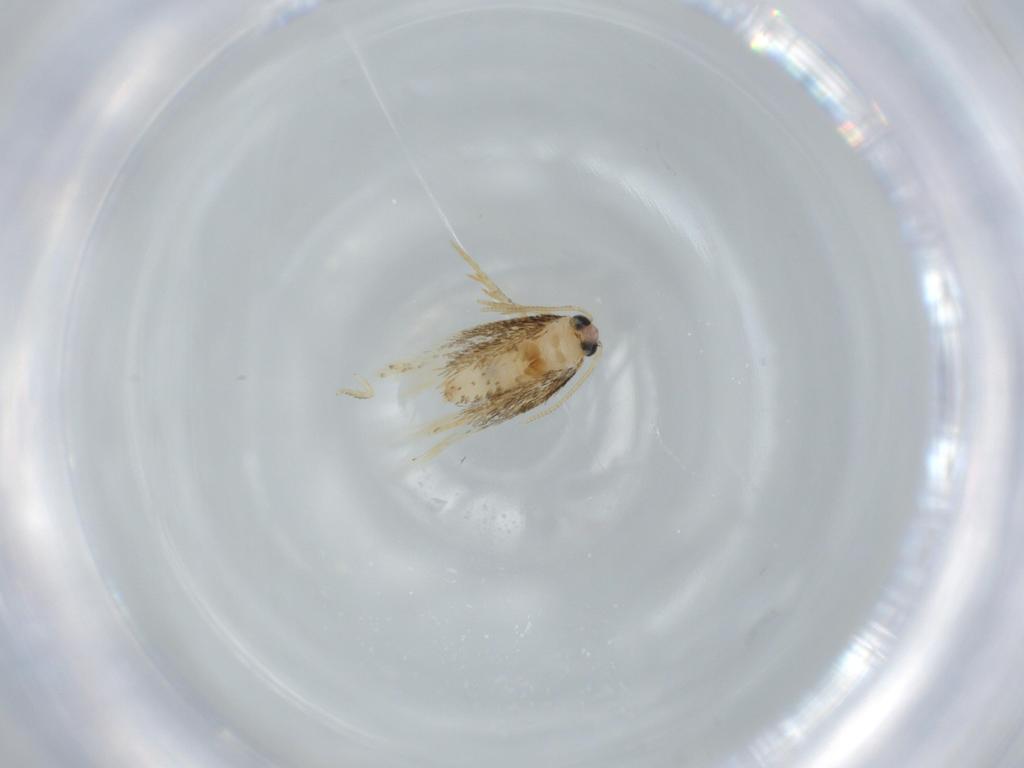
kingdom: Animalia
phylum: Arthropoda
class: Insecta
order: Lepidoptera
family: Nepticulidae
